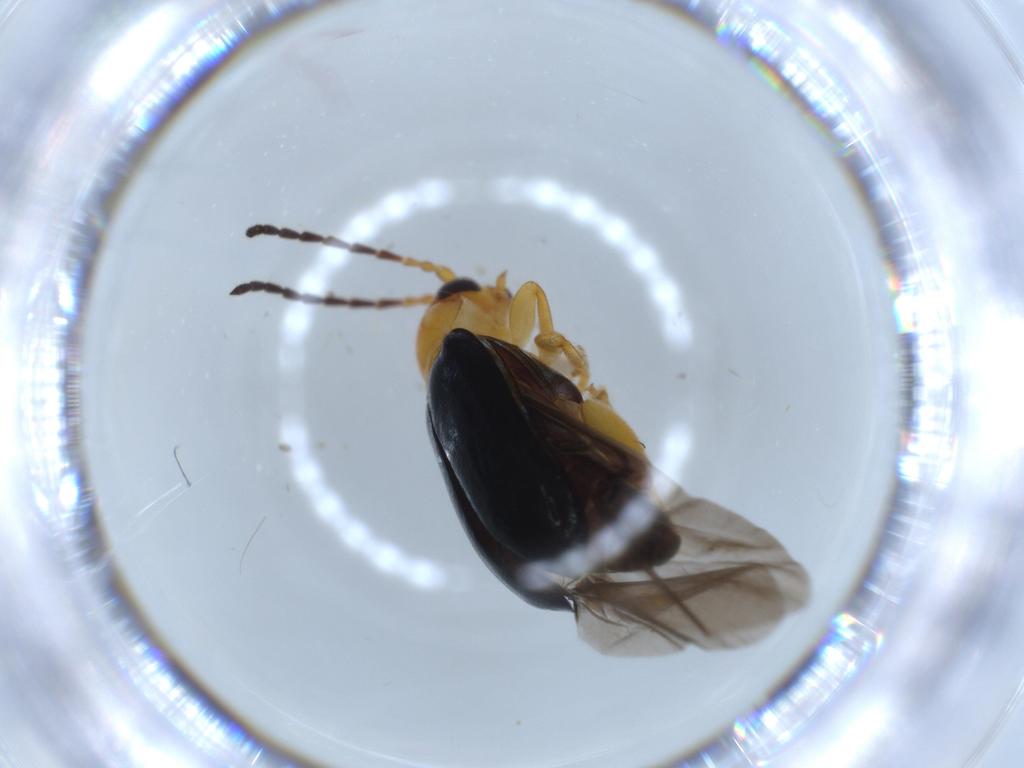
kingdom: Animalia
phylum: Arthropoda
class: Insecta
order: Coleoptera
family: Chrysomelidae
